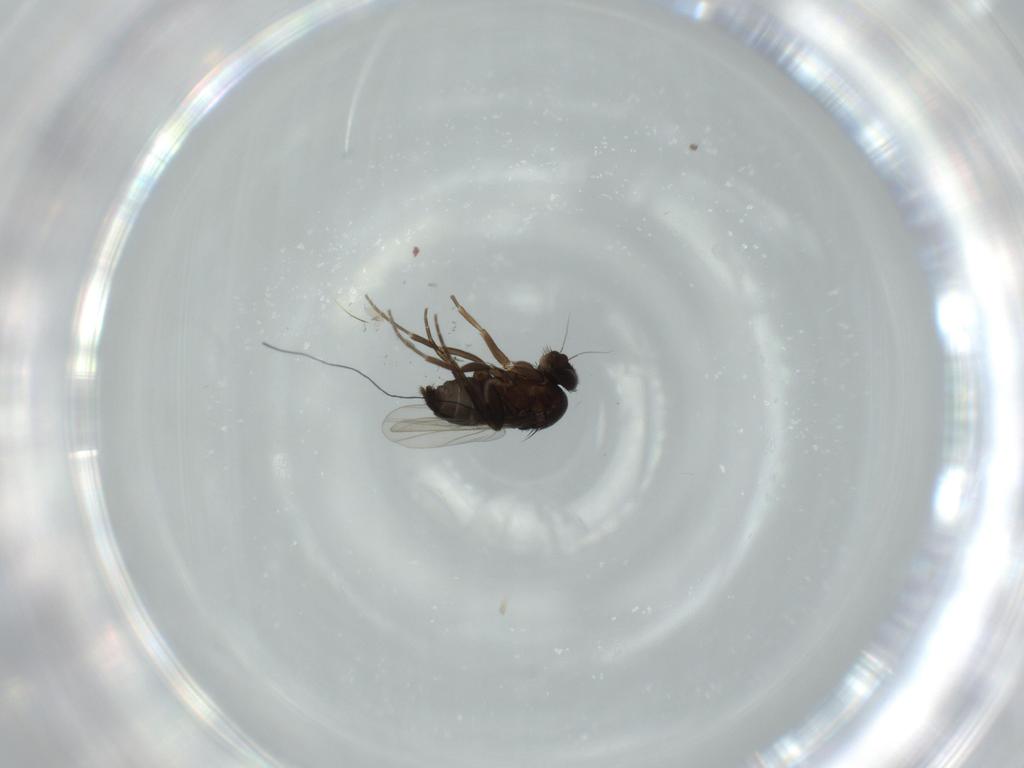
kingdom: Animalia
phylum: Arthropoda
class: Insecta
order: Diptera
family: Phoridae
